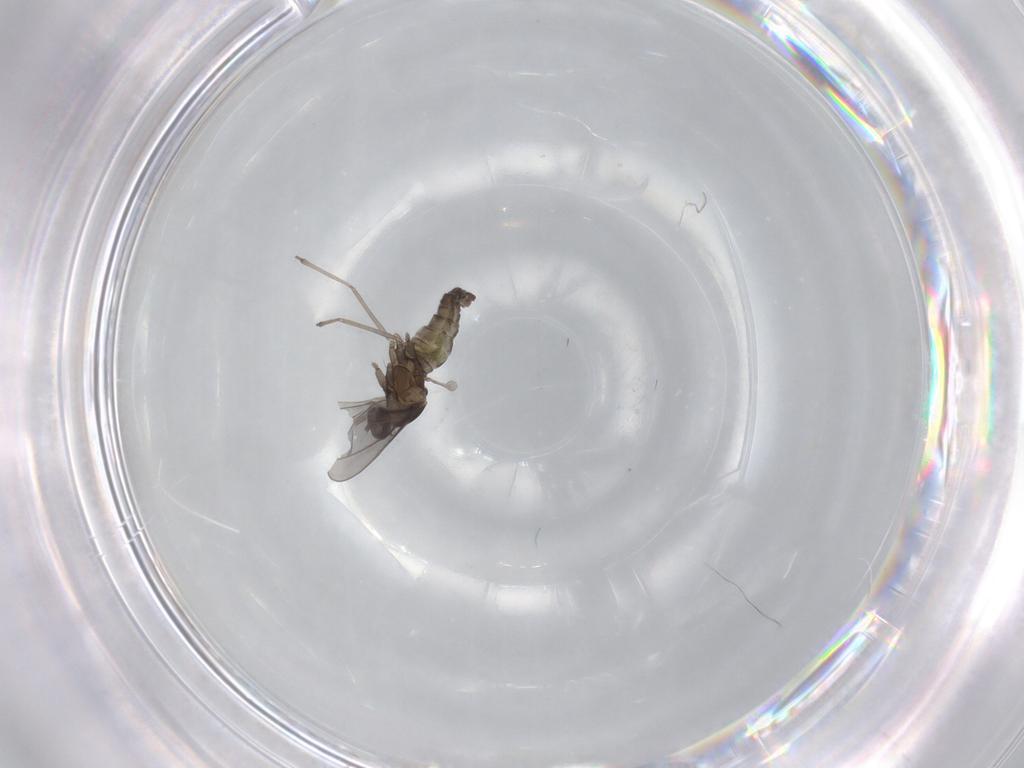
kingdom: Animalia
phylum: Arthropoda
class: Insecta
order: Diptera
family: Cecidomyiidae
